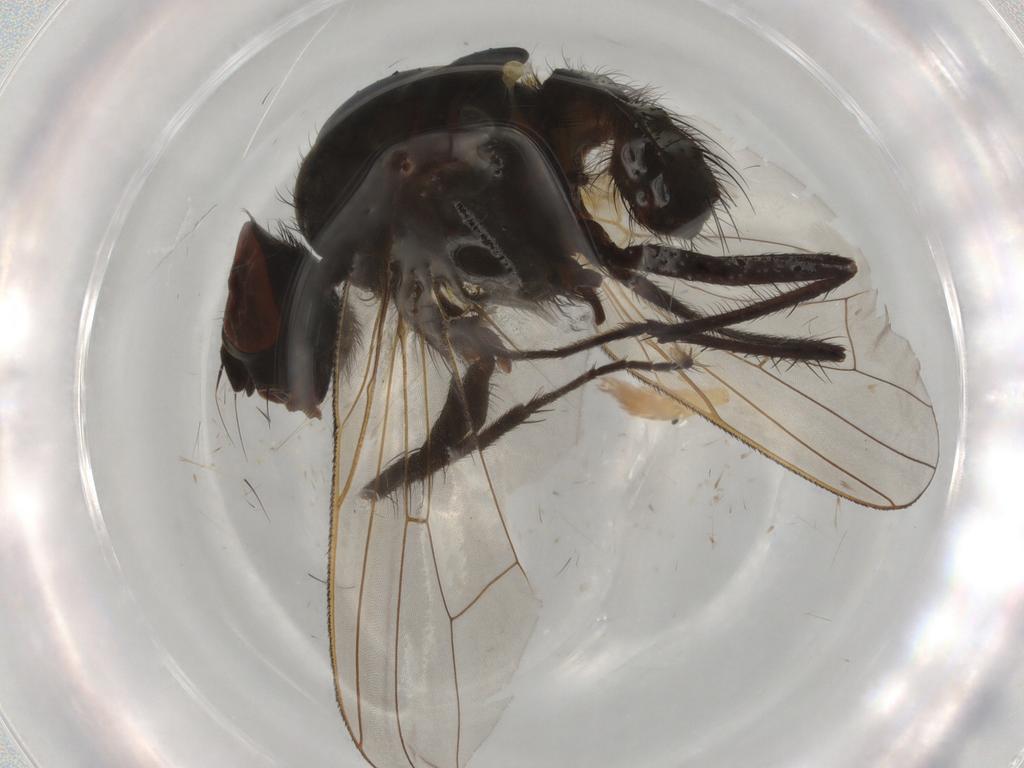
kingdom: Animalia
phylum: Arthropoda
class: Insecta
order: Diptera
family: Phoridae
